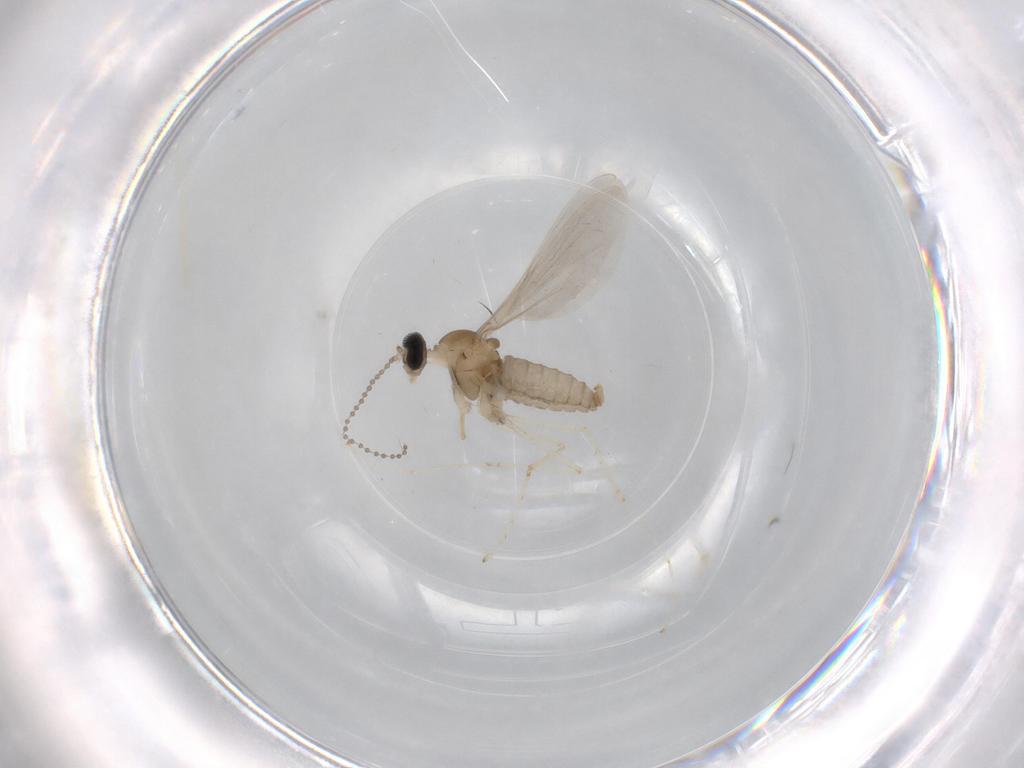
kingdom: Animalia
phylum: Arthropoda
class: Insecta
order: Diptera
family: Cecidomyiidae
